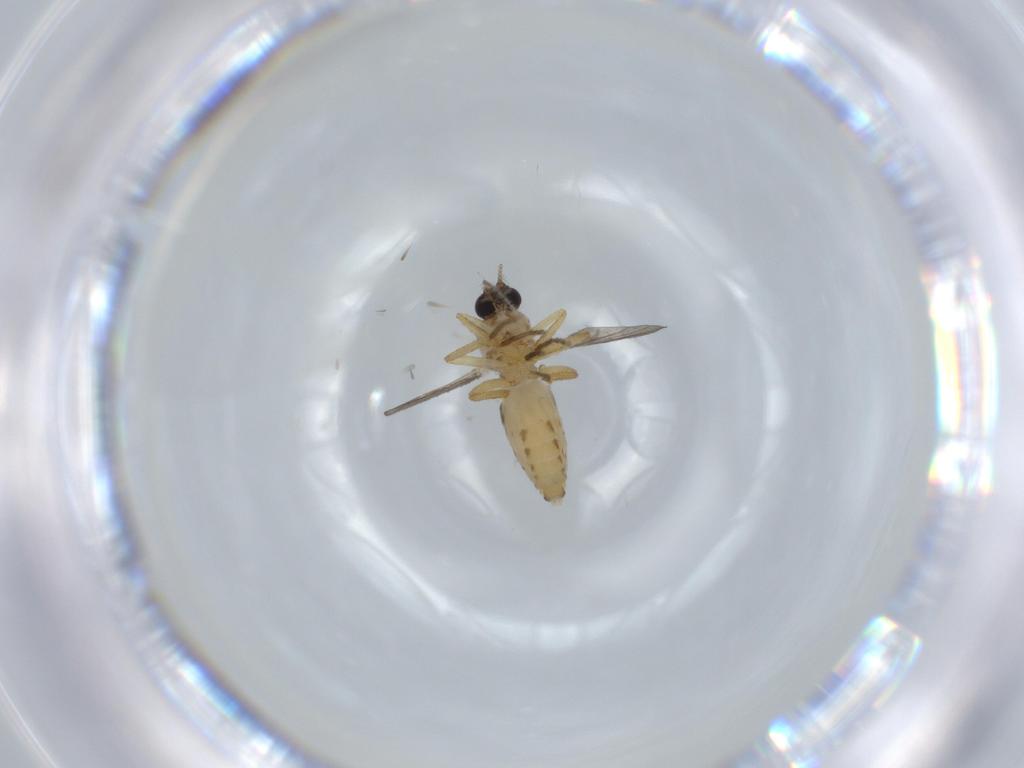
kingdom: Animalia
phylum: Arthropoda
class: Insecta
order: Diptera
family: Ceratopogonidae
